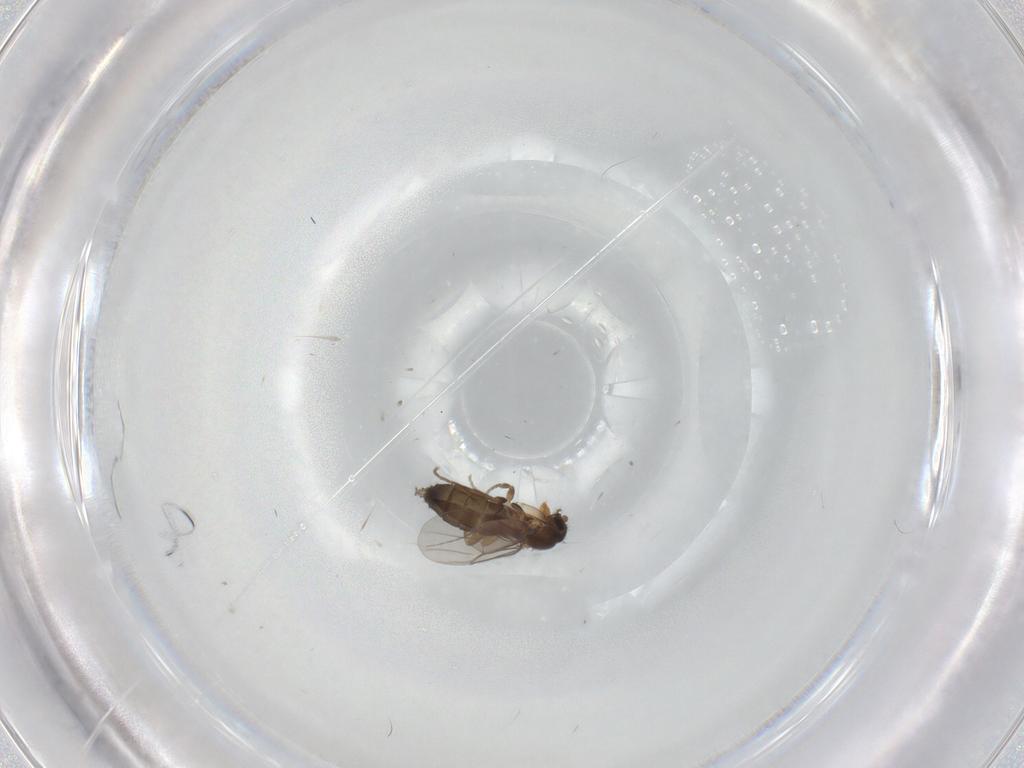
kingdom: Animalia
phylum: Arthropoda
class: Insecta
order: Diptera
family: Phoridae
